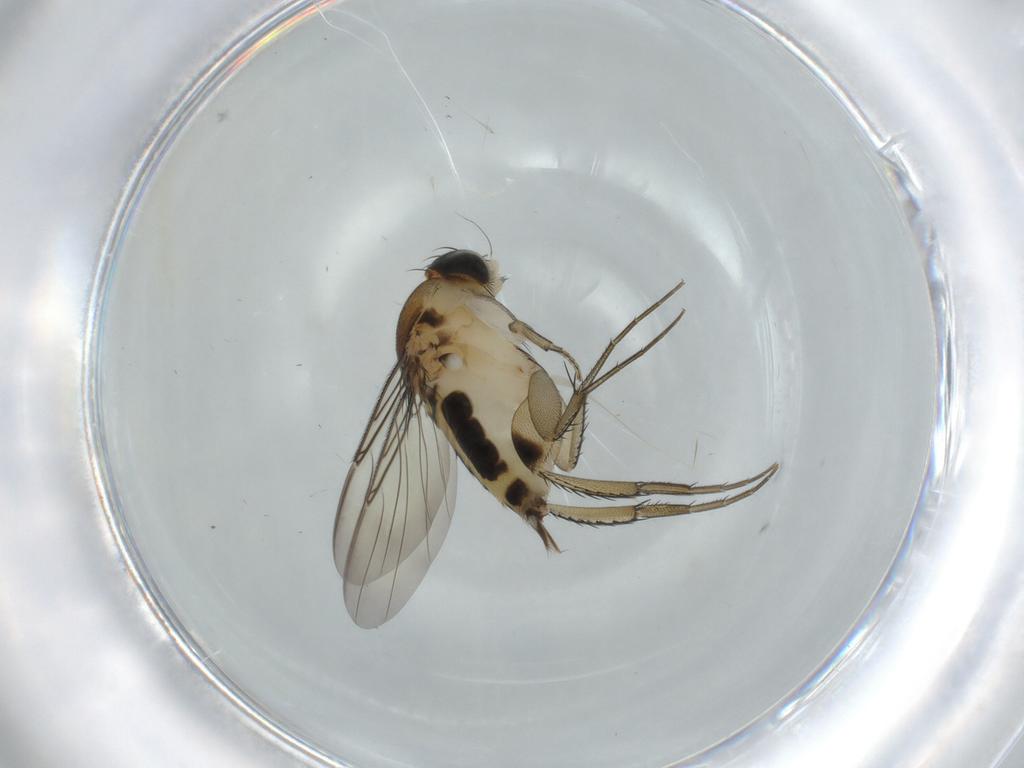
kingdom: Animalia
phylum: Arthropoda
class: Insecta
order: Diptera
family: Phoridae
